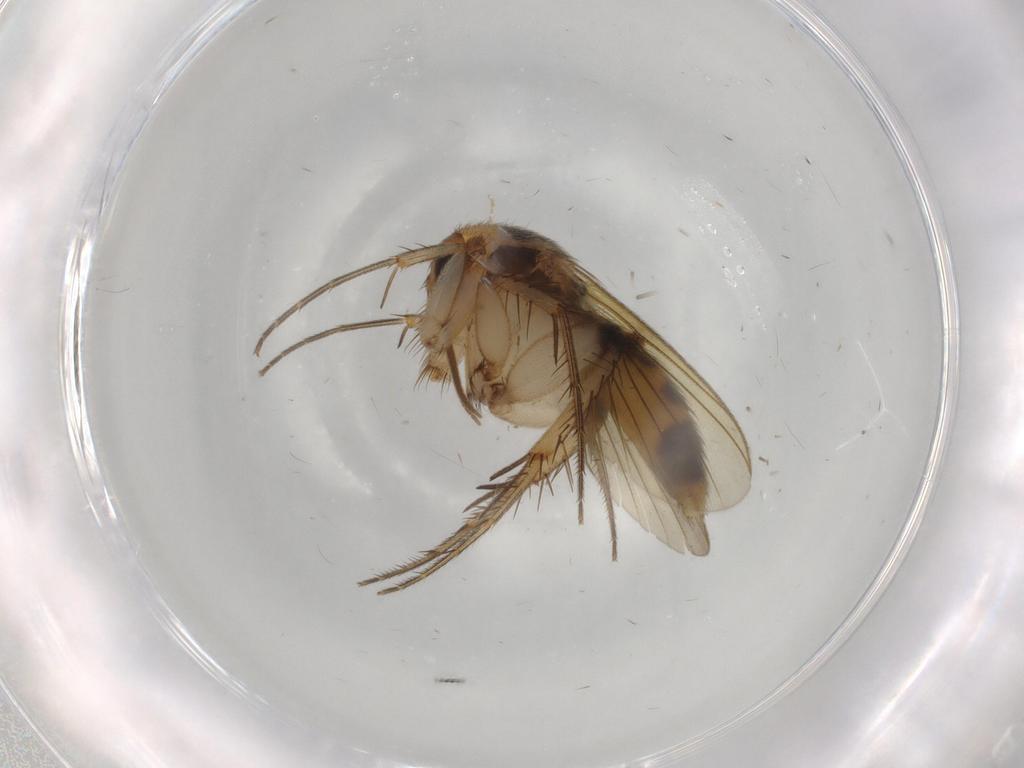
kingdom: Animalia
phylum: Arthropoda
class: Insecta
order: Diptera
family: Mycetophilidae
